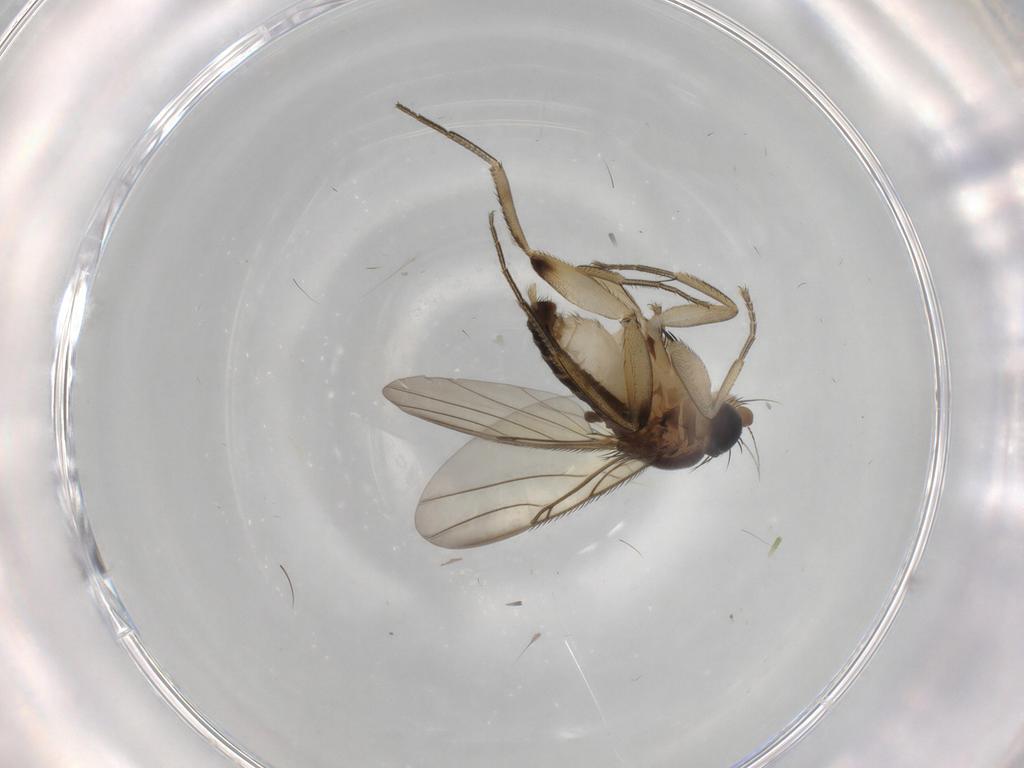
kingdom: Animalia
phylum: Arthropoda
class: Insecta
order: Diptera
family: Phoridae
